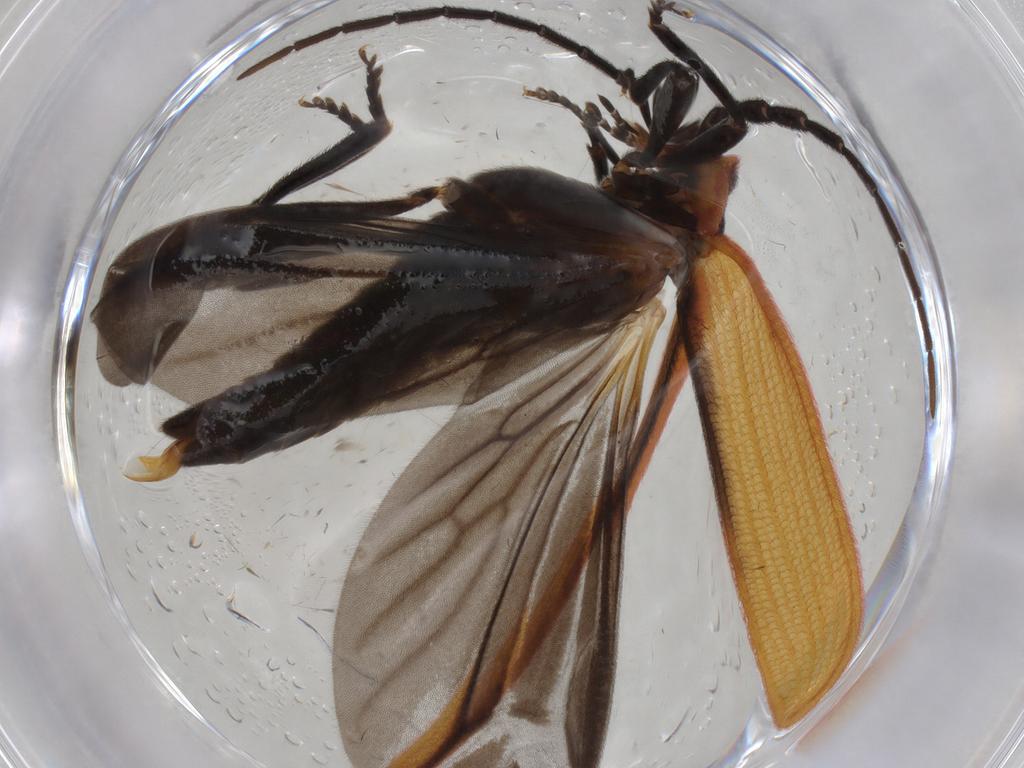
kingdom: Animalia
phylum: Arthropoda
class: Insecta
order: Coleoptera
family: Lycidae
